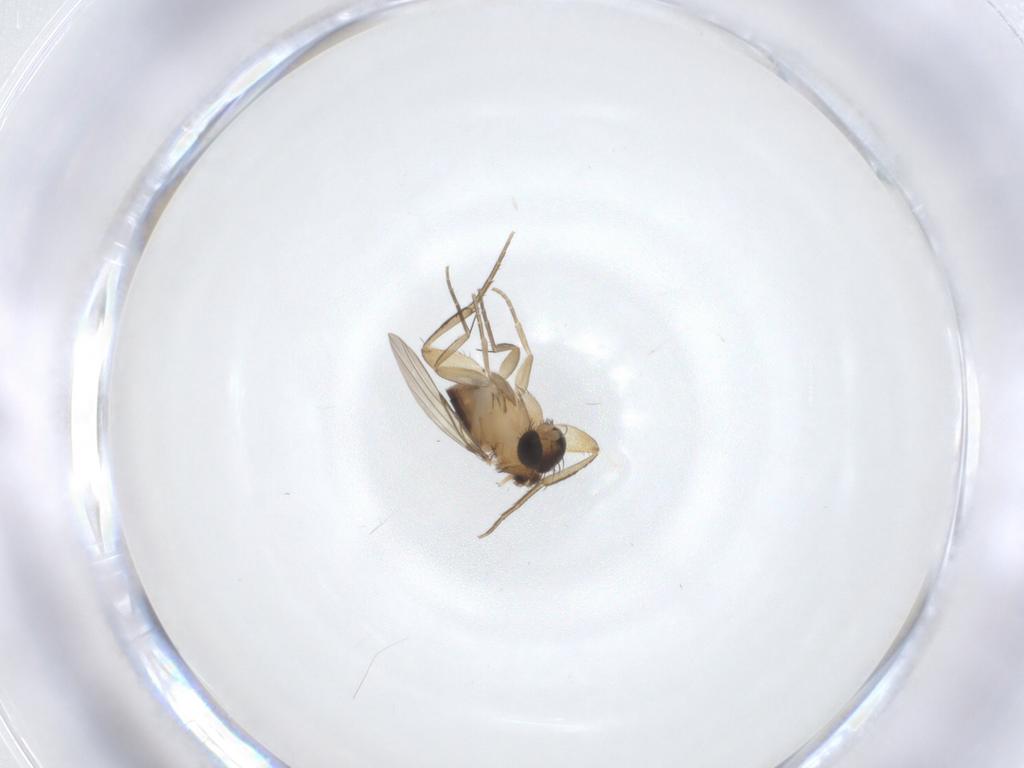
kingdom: Animalia
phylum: Arthropoda
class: Insecta
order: Diptera
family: Phoridae
